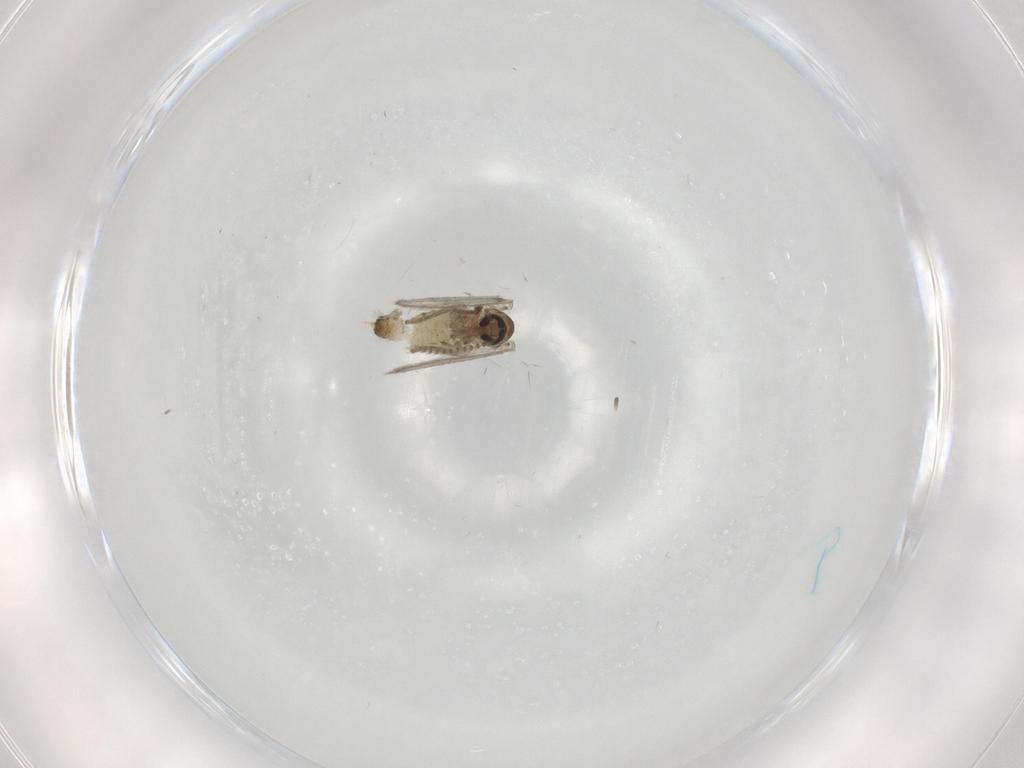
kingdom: Animalia
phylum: Arthropoda
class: Insecta
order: Diptera
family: Psychodidae
